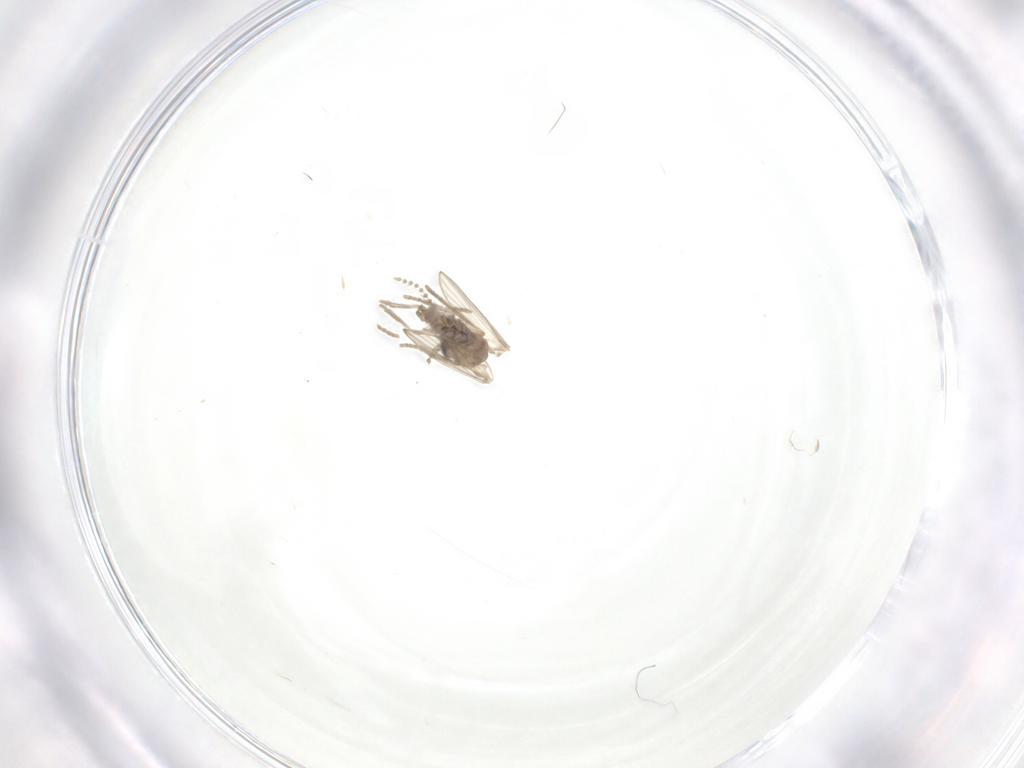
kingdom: Animalia
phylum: Arthropoda
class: Insecta
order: Diptera
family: Psychodidae
